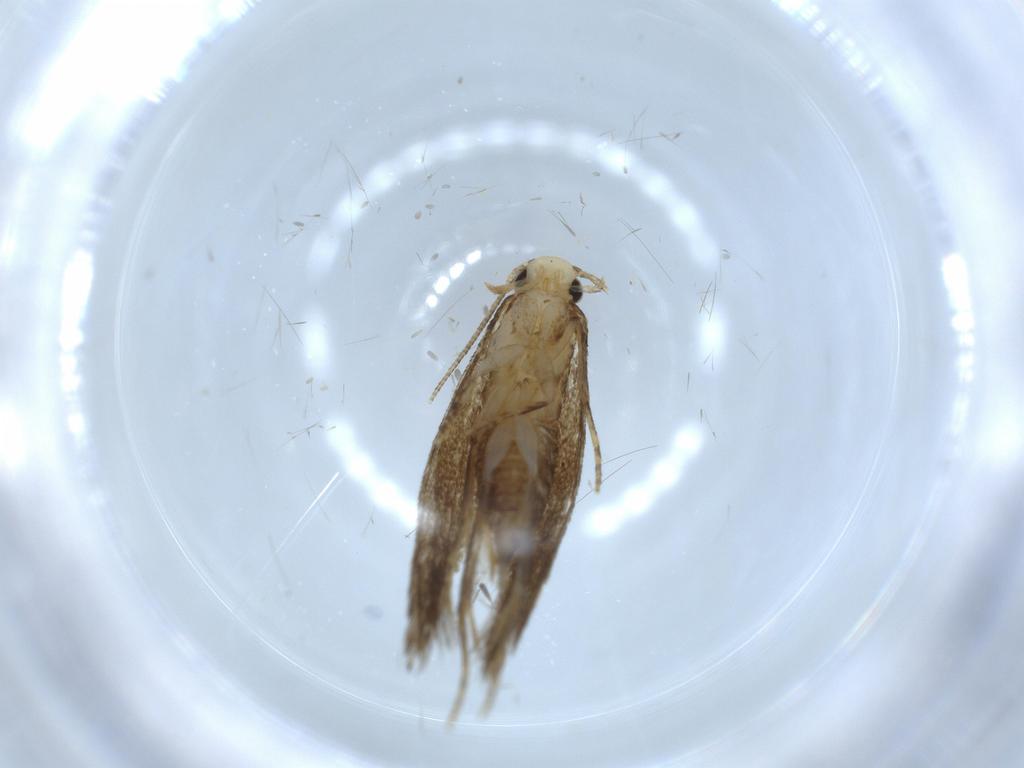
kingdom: Animalia
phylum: Arthropoda
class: Insecta
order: Lepidoptera
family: Tineidae
